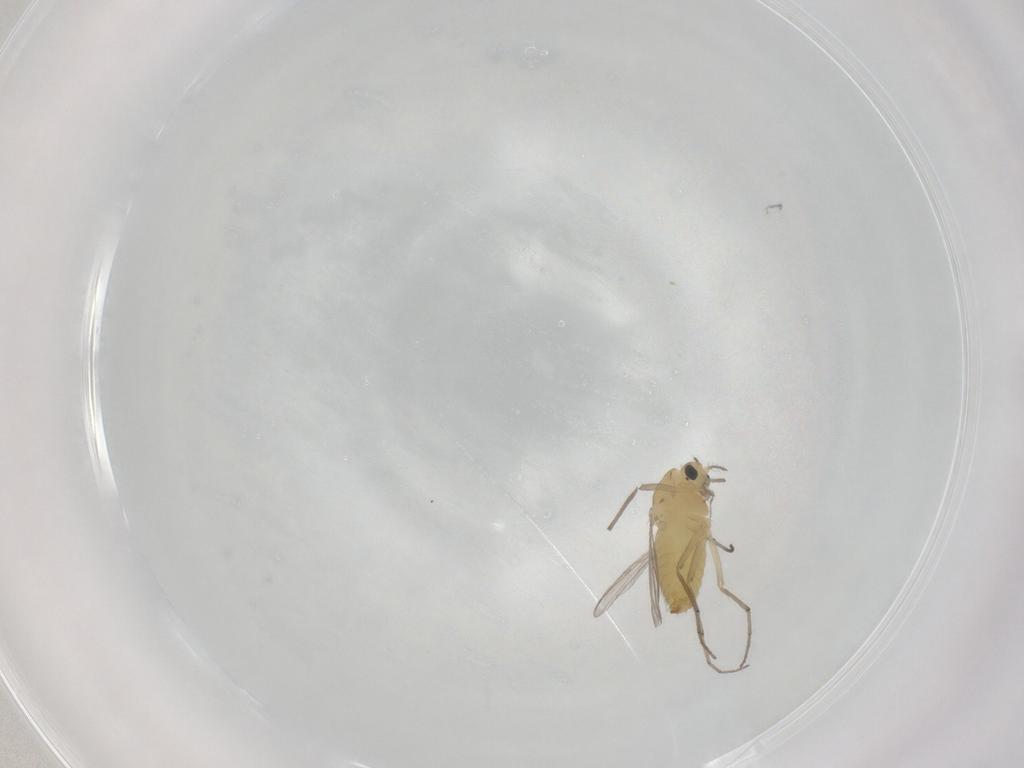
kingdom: Animalia
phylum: Arthropoda
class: Insecta
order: Diptera
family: Chironomidae
